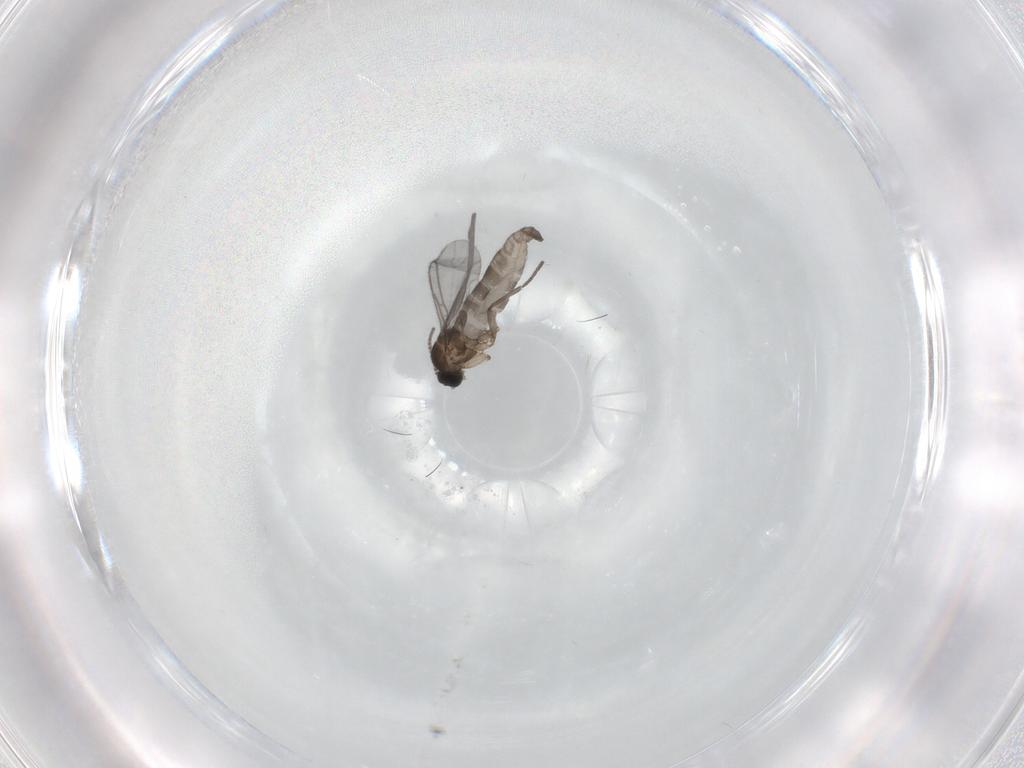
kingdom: Animalia
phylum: Arthropoda
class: Insecta
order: Diptera
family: Sciaridae
